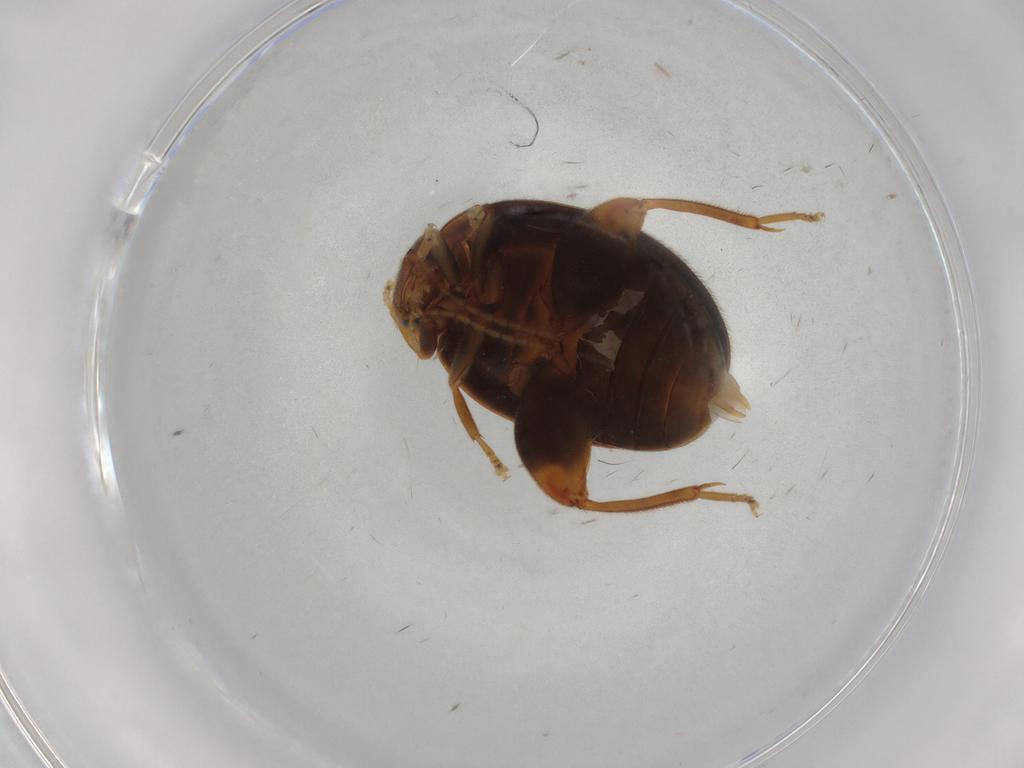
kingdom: Animalia
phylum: Arthropoda
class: Insecta
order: Coleoptera
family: Scirtidae
